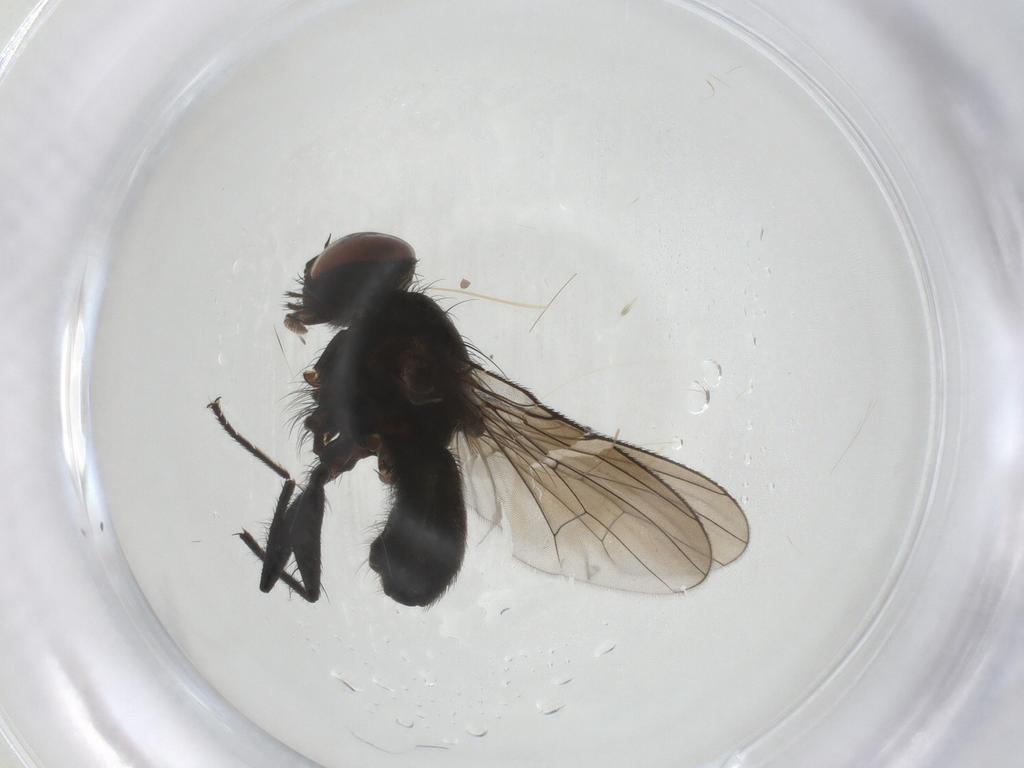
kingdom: Animalia
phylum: Arthropoda
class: Insecta
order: Diptera
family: Muscidae
